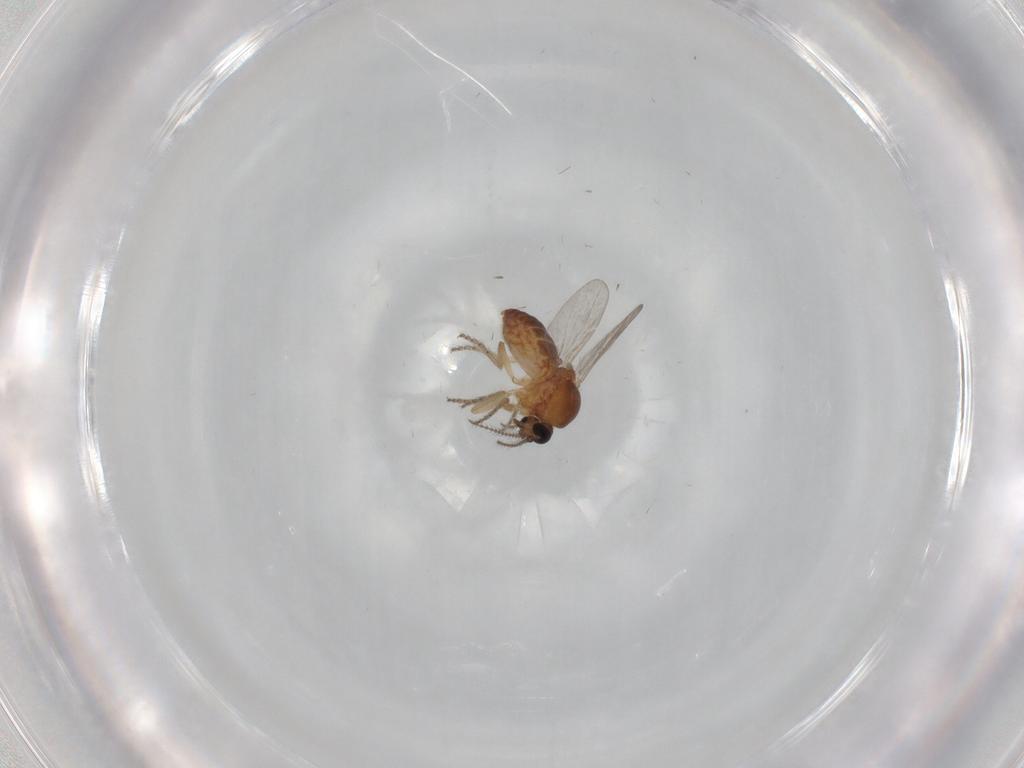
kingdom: Animalia
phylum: Arthropoda
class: Insecta
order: Diptera
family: Ceratopogonidae
